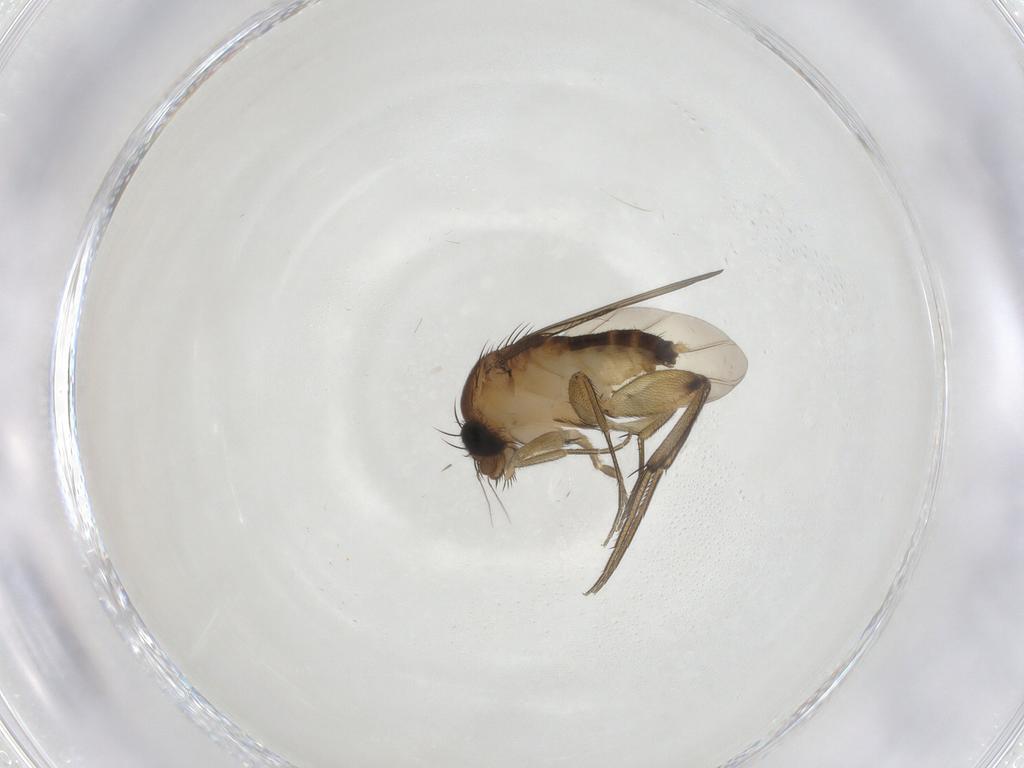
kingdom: Animalia
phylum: Arthropoda
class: Insecta
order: Diptera
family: Phoridae
